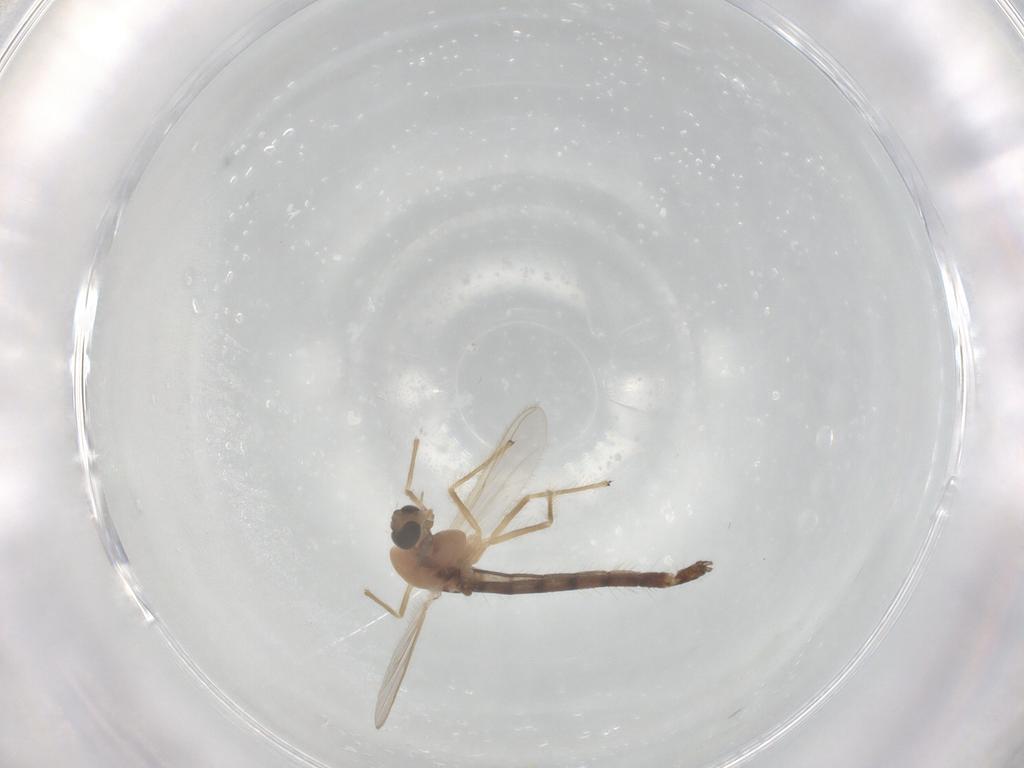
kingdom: Animalia
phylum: Arthropoda
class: Insecta
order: Diptera
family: Chironomidae
